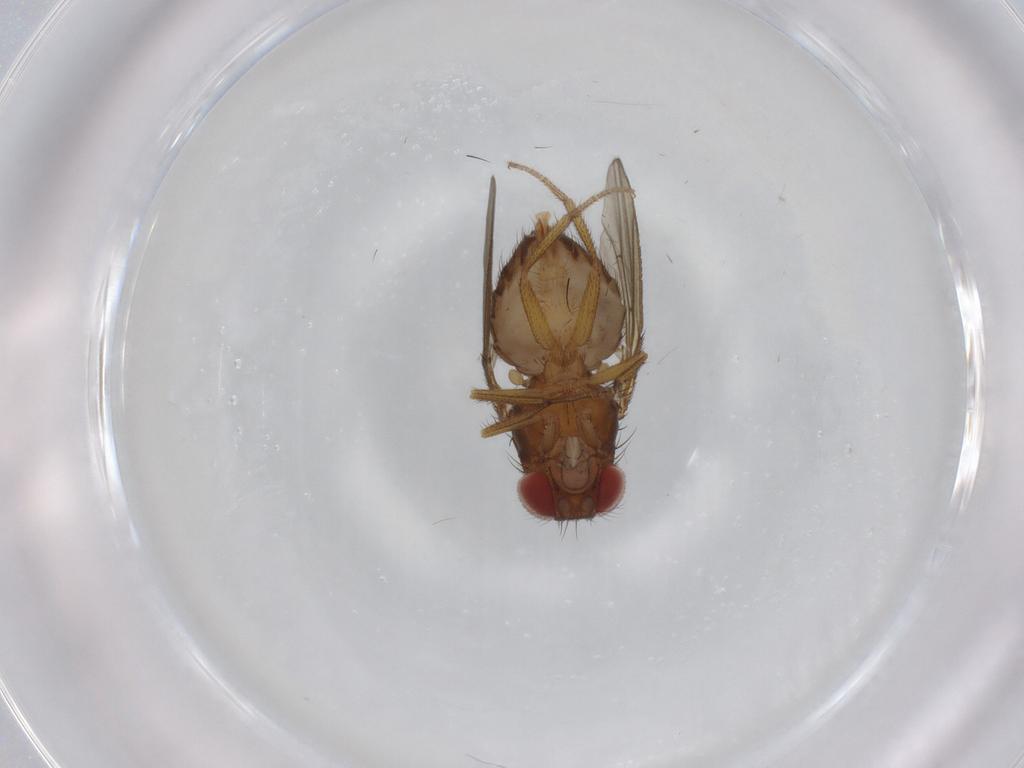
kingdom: Animalia
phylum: Arthropoda
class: Insecta
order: Diptera
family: Drosophilidae
